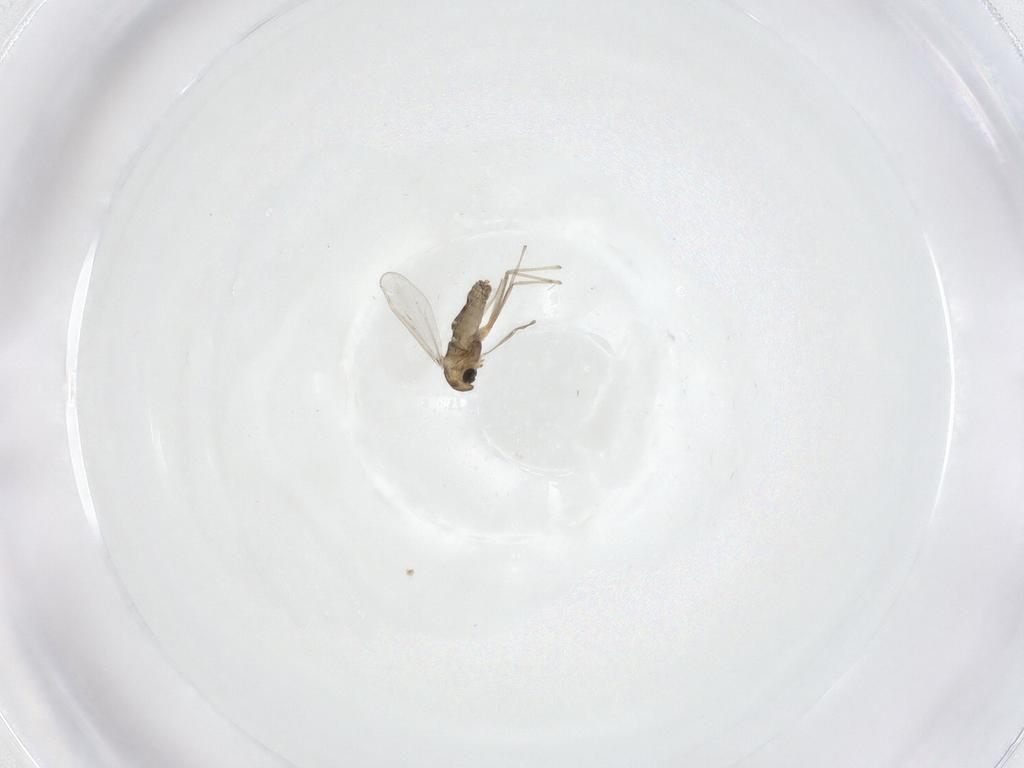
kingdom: Animalia
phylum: Arthropoda
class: Insecta
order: Diptera
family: Chironomidae
